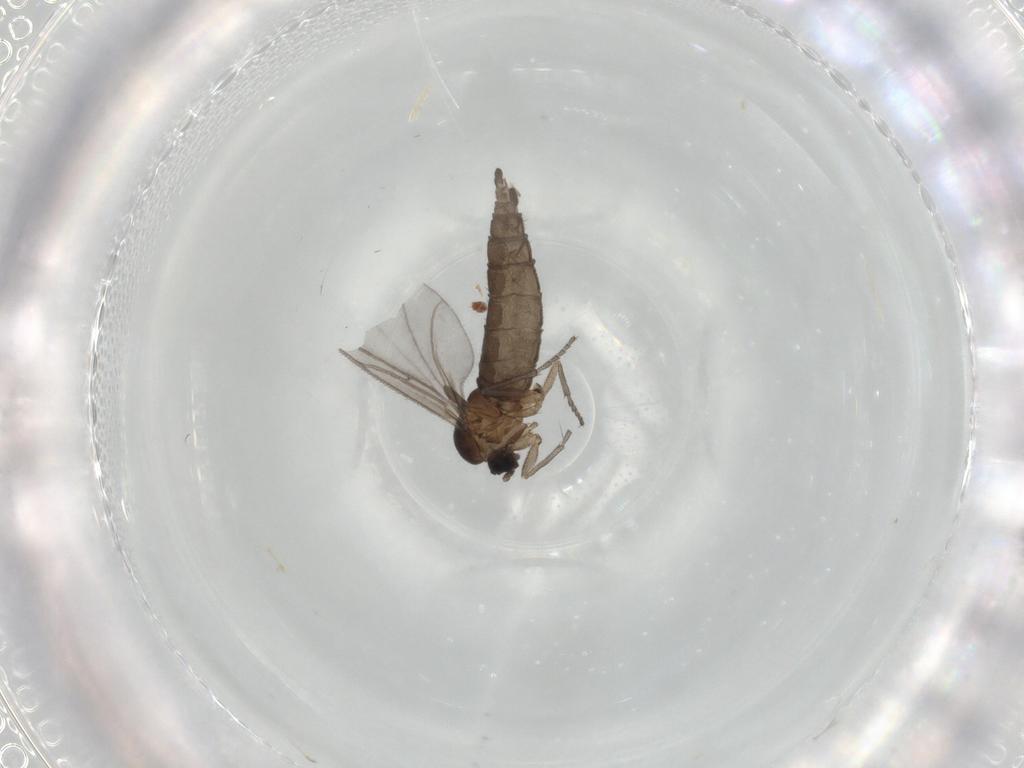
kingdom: Animalia
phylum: Arthropoda
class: Insecta
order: Diptera
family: Sciaridae
